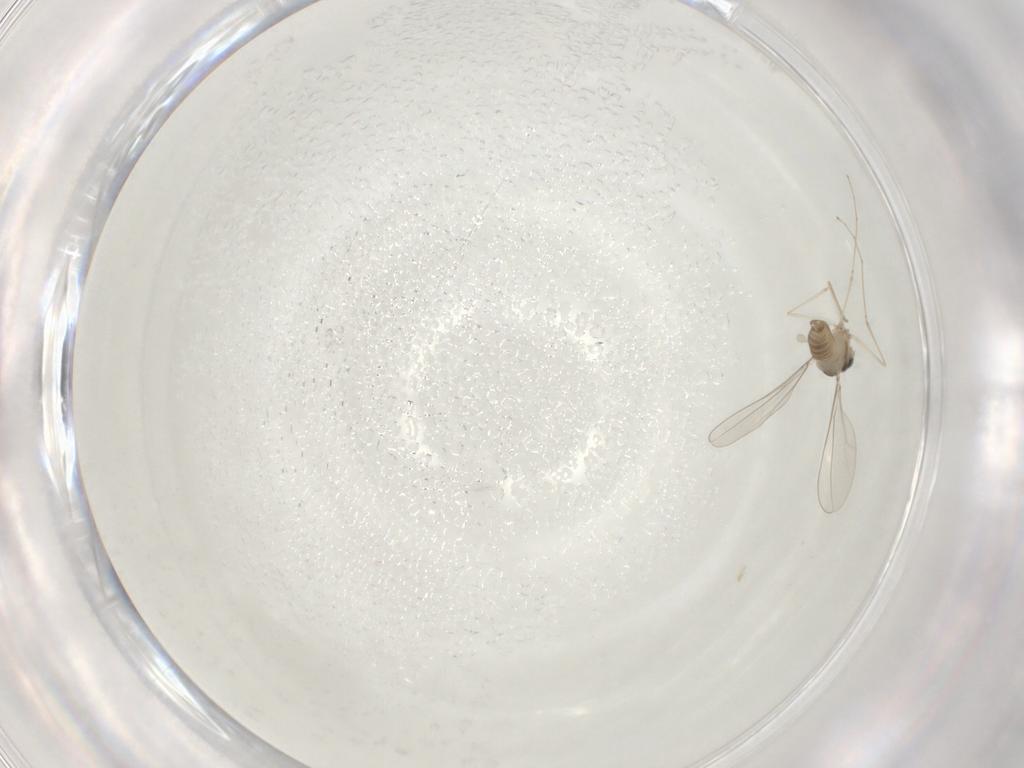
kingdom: Animalia
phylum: Arthropoda
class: Insecta
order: Diptera
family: Cecidomyiidae
